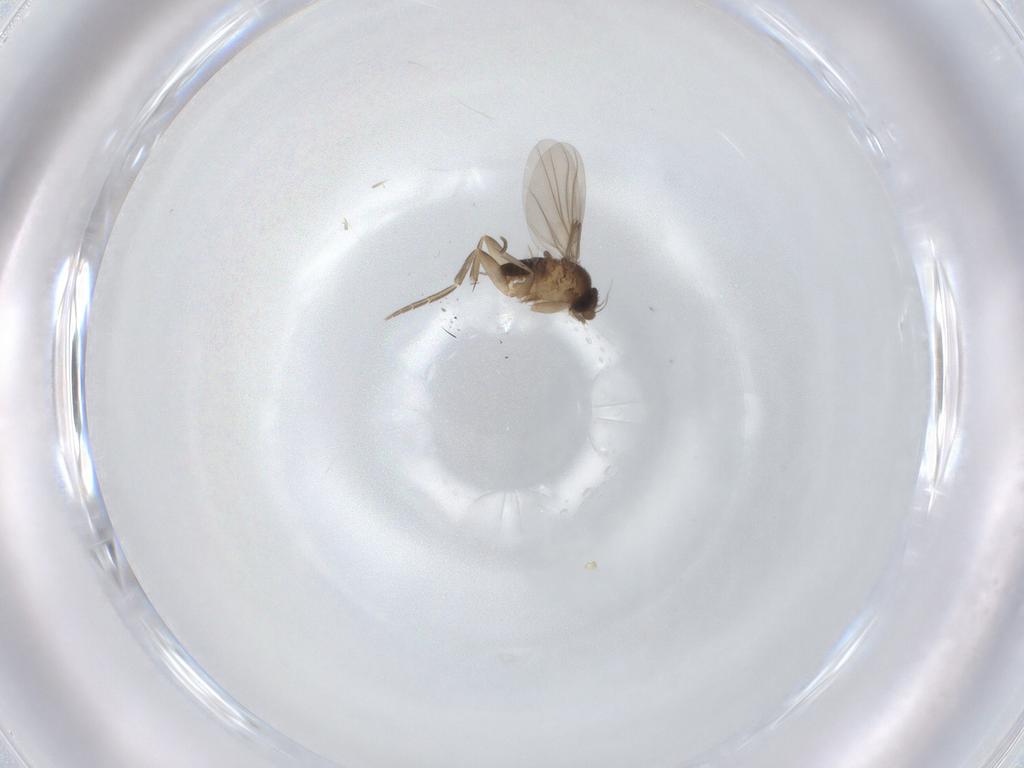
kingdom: Animalia
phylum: Arthropoda
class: Insecta
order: Diptera
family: Phoridae
